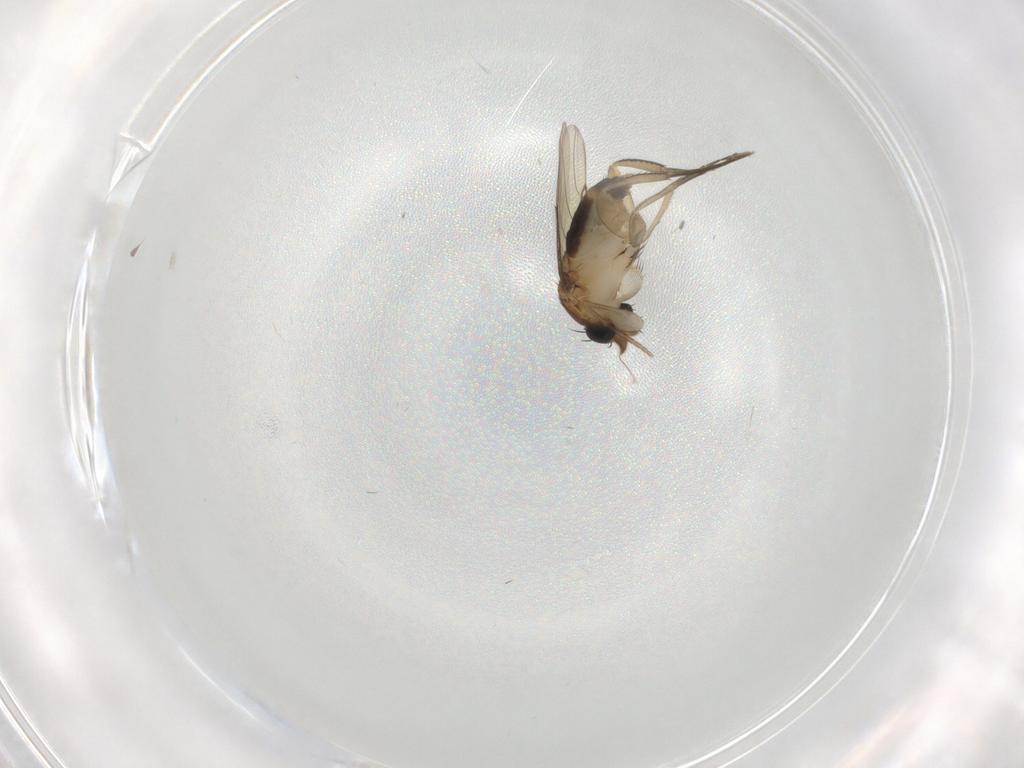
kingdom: Animalia
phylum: Arthropoda
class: Insecta
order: Diptera
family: Phoridae
